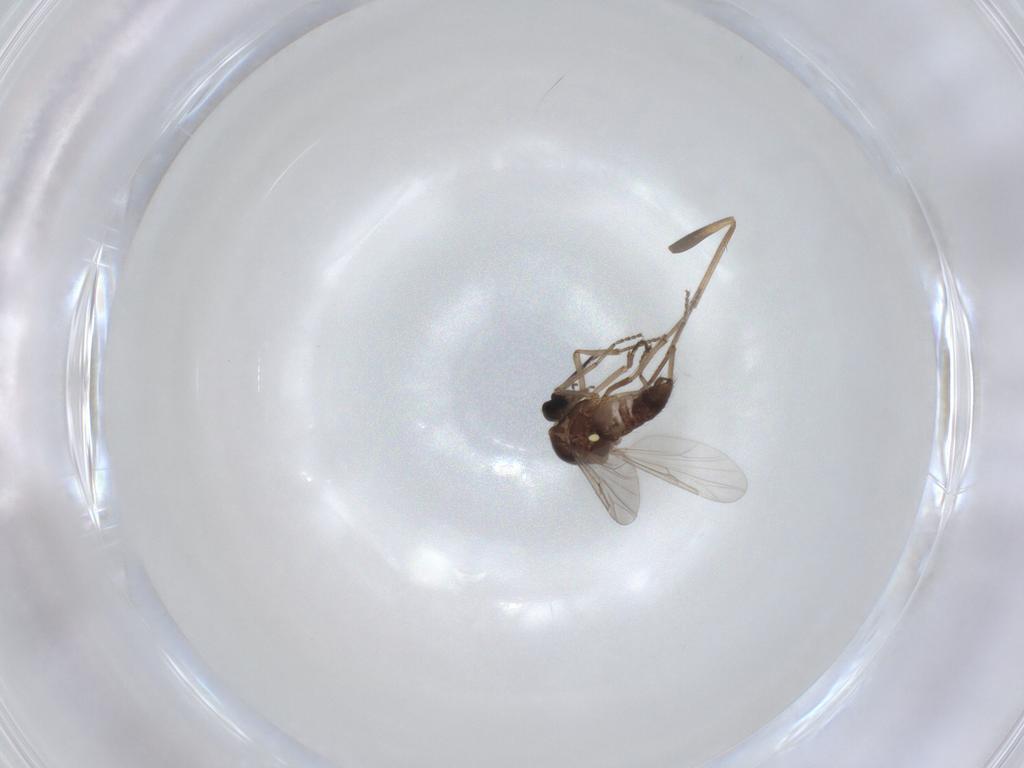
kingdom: Animalia
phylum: Arthropoda
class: Insecta
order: Diptera
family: Ceratopogonidae
